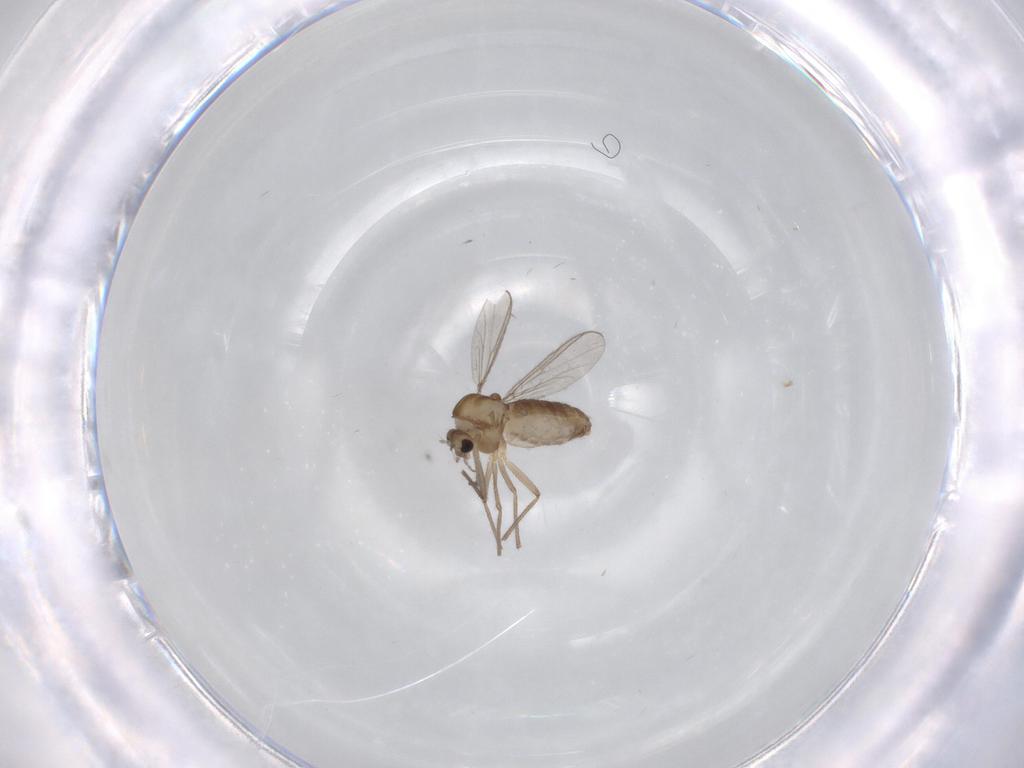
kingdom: Animalia
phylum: Arthropoda
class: Insecta
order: Diptera
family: Chironomidae
